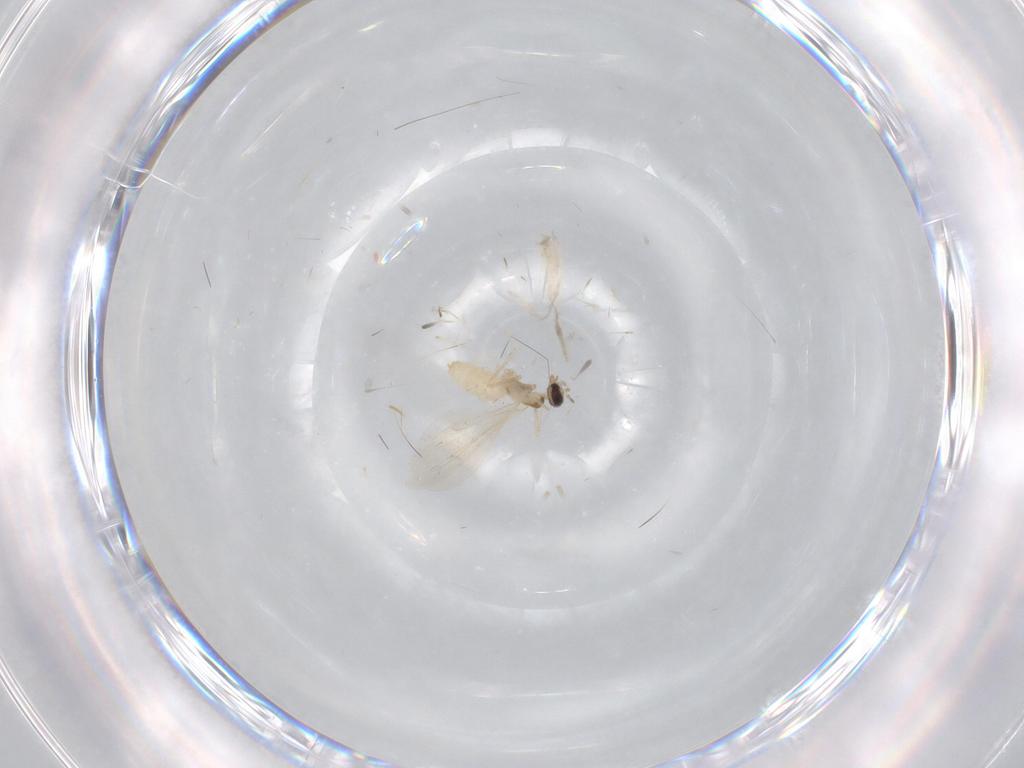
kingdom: Animalia
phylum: Arthropoda
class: Insecta
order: Diptera
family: Cecidomyiidae
